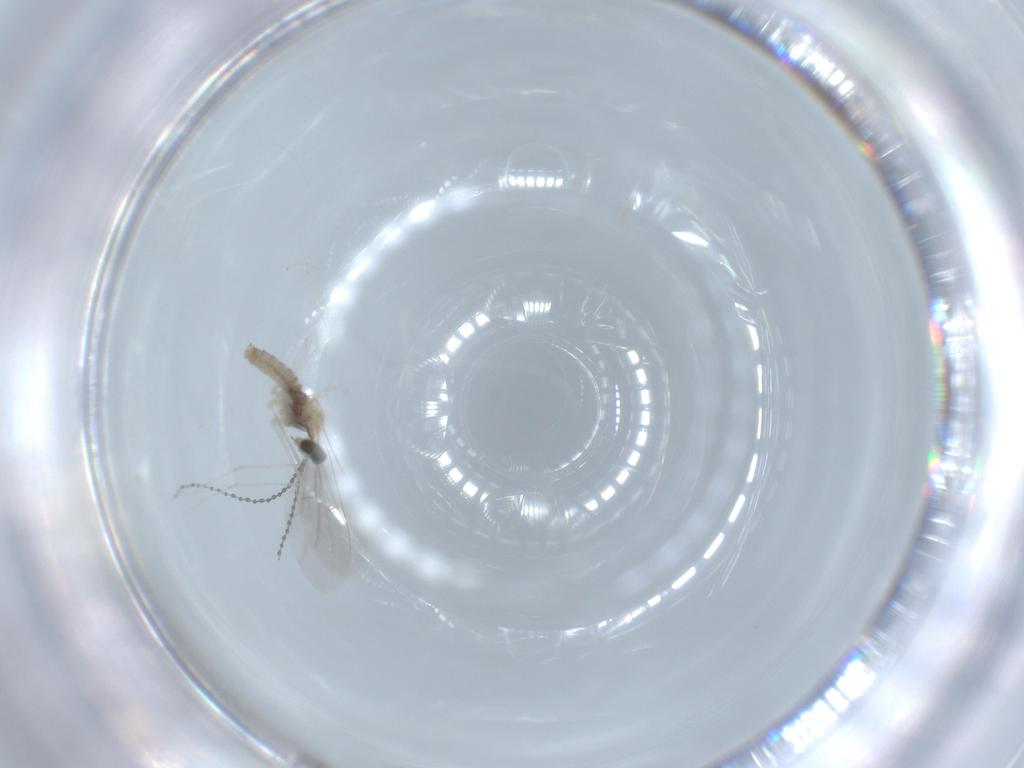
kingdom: Animalia
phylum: Arthropoda
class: Insecta
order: Diptera
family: Cecidomyiidae
